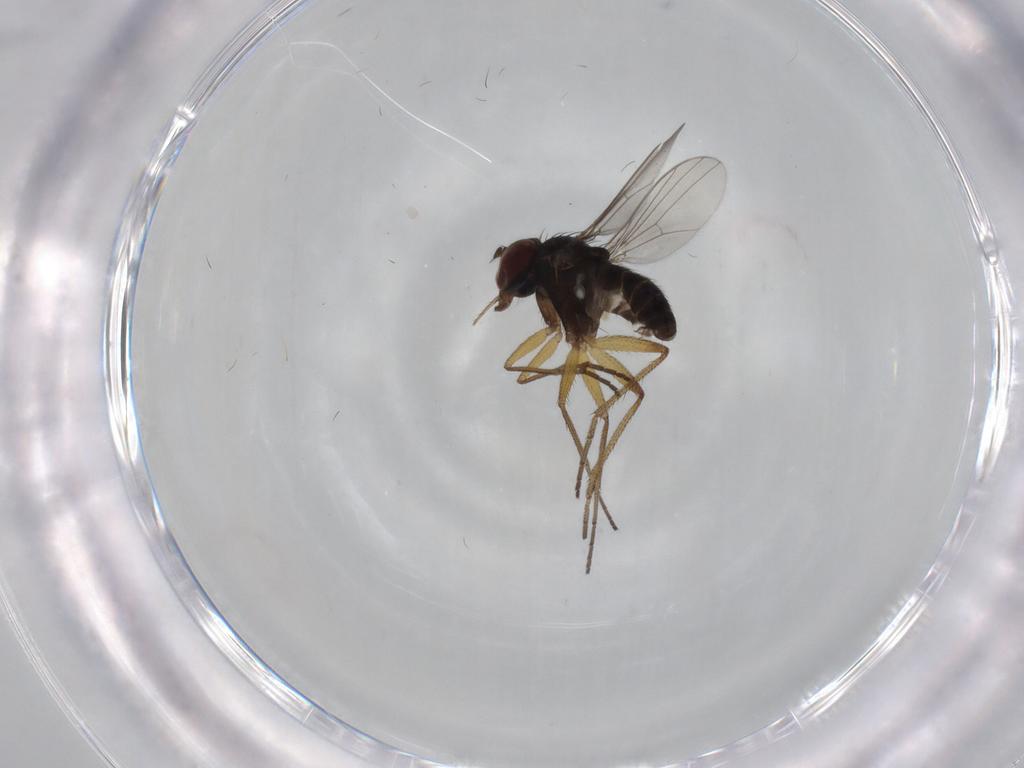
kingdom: Animalia
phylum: Arthropoda
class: Insecta
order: Diptera
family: Dolichopodidae
